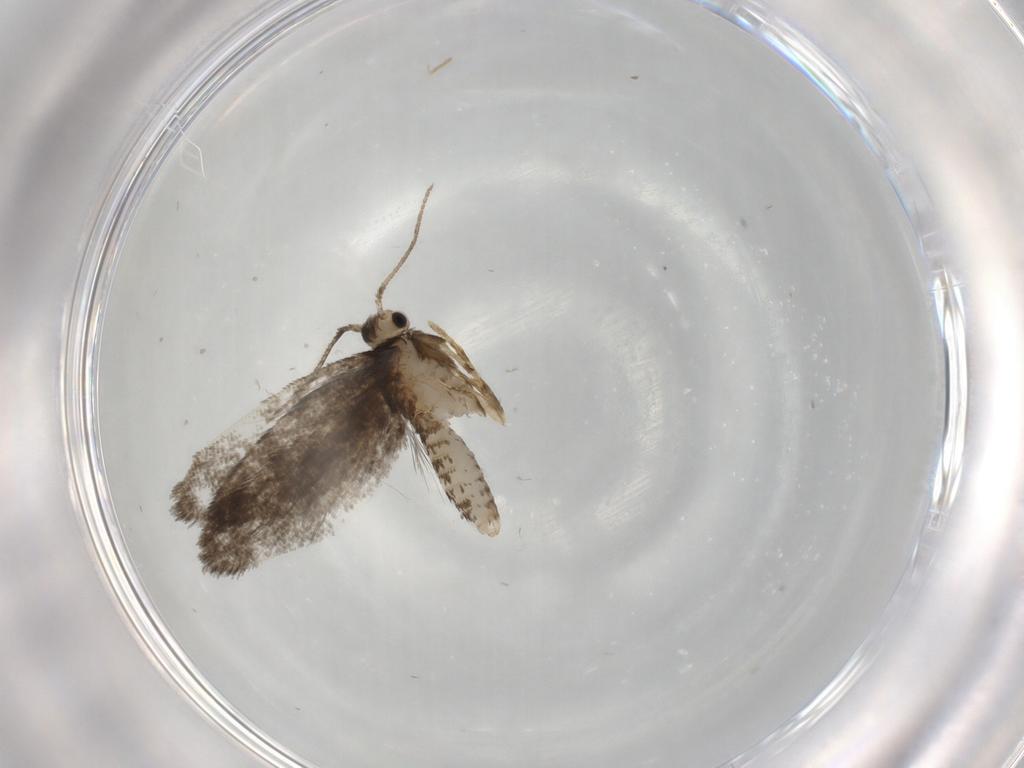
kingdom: Animalia
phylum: Arthropoda
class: Insecta
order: Lepidoptera
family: Psychidae
